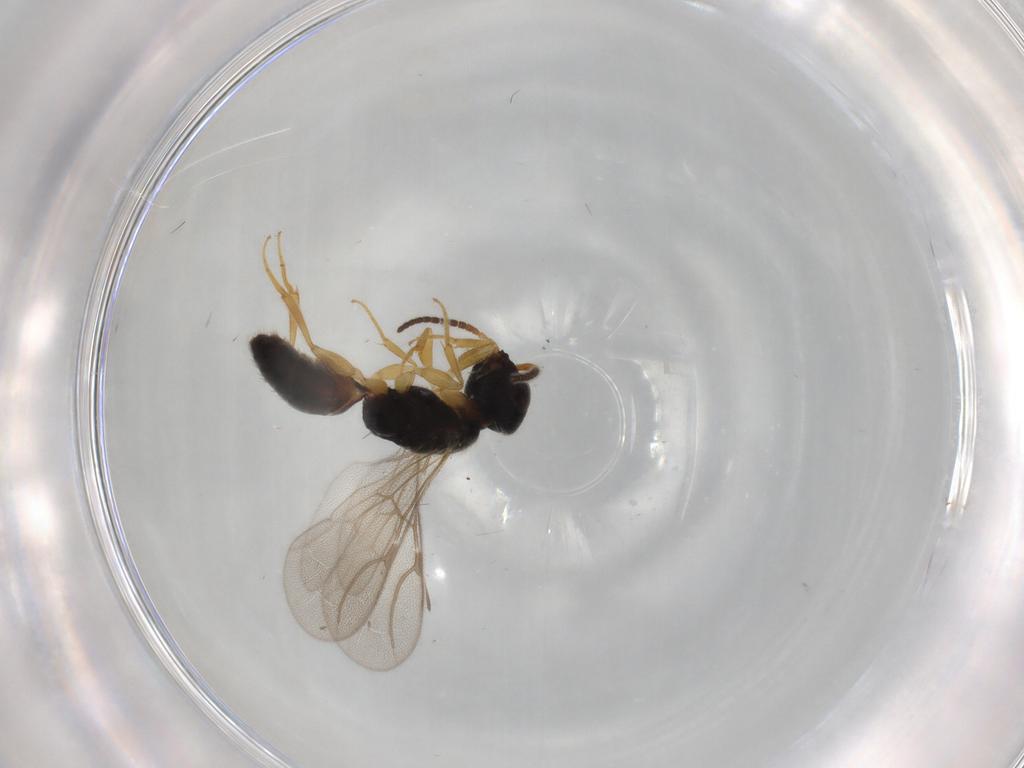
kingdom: Animalia
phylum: Arthropoda
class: Insecta
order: Hymenoptera
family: Bethylidae
